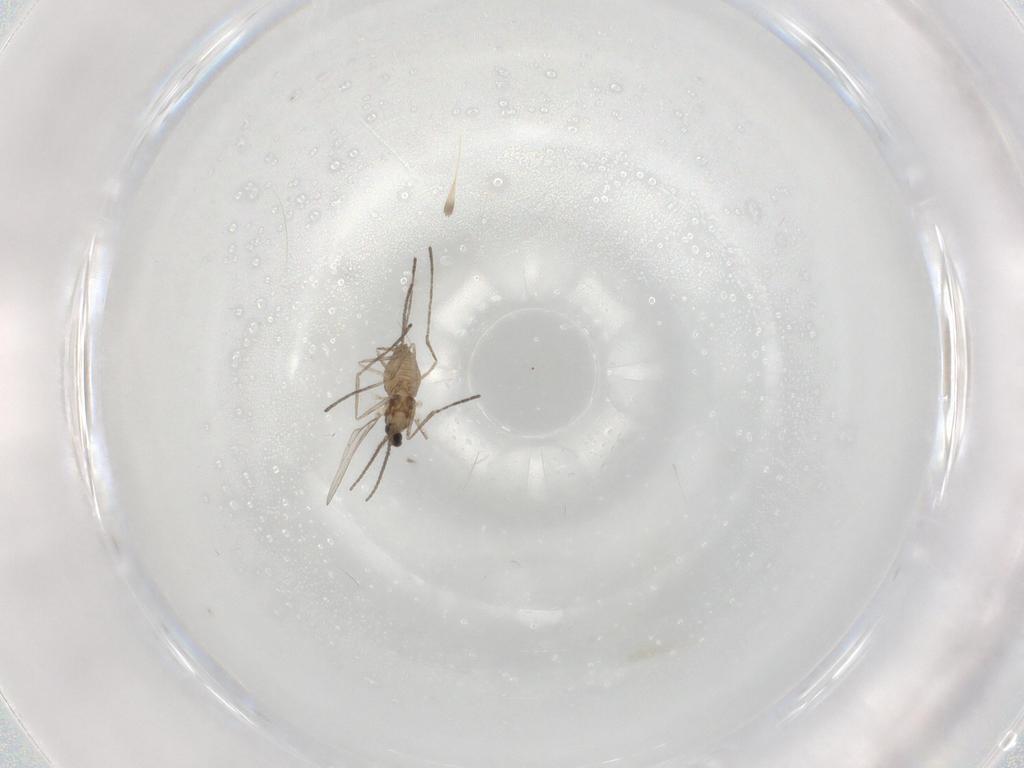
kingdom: Animalia
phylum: Arthropoda
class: Insecta
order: Diptera
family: Cecidomyiidae
